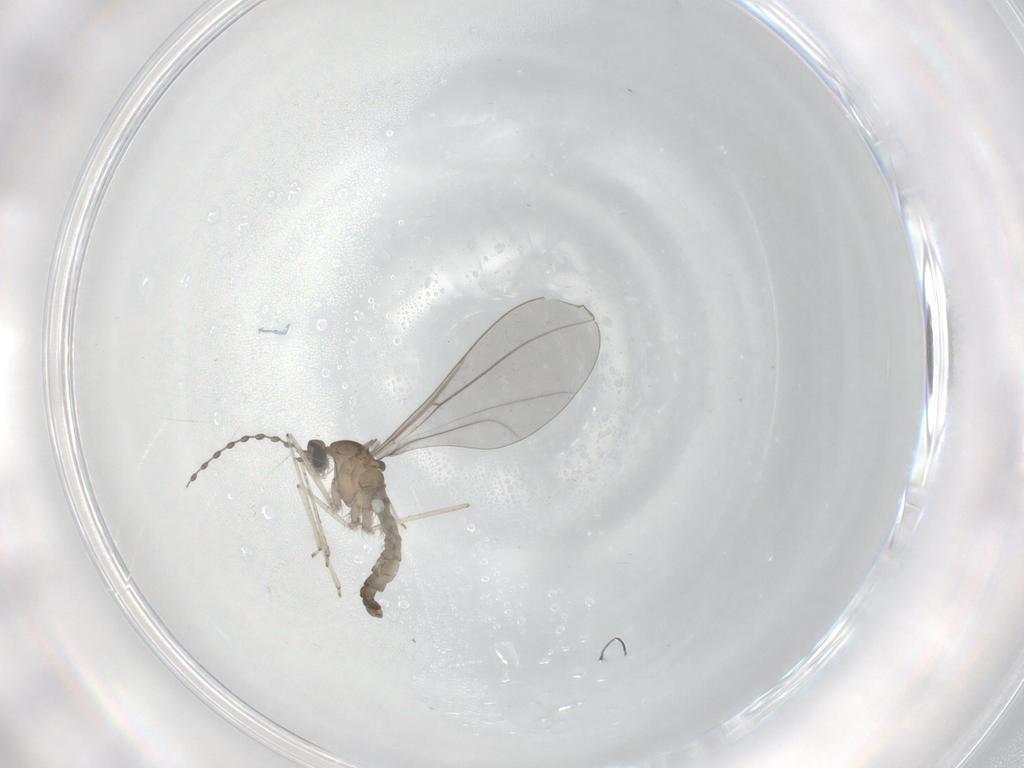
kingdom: Animalia
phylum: Arthropoda
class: Insecta
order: Diptera
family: Cecidomyiidae
